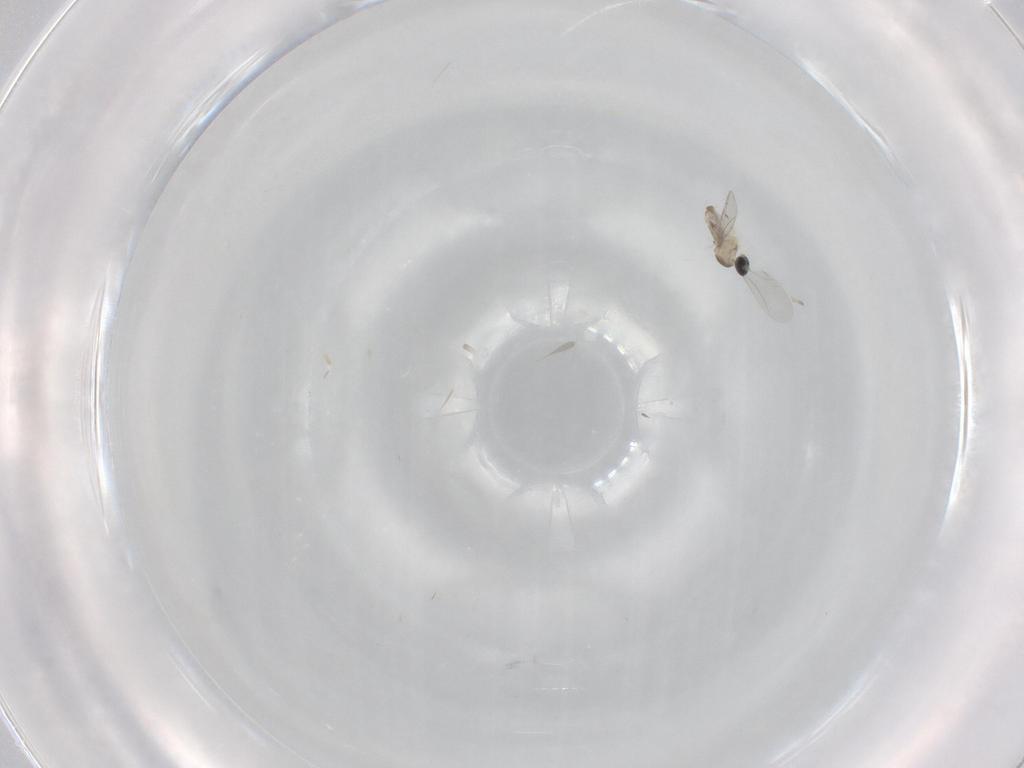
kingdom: Animalia
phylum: Arthropoda
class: Insecta
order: Diptera
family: Cecidomyiidae
